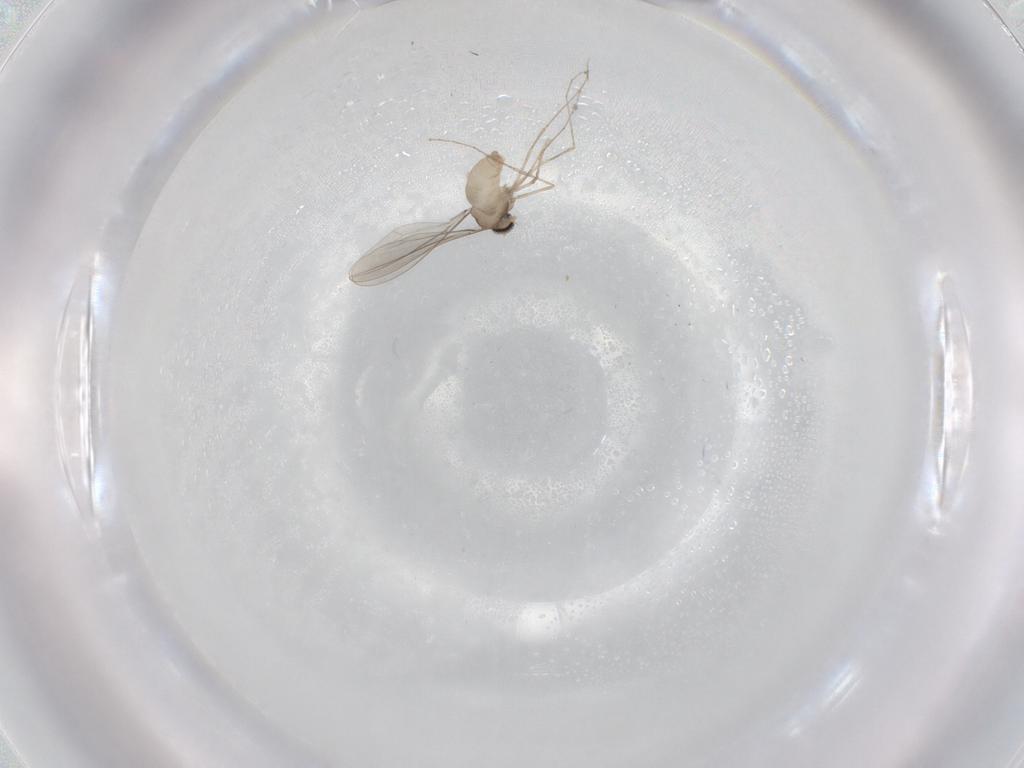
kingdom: Animalia
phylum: Arthropoda
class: Insecta
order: Diptera
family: Cecidomyiidae
